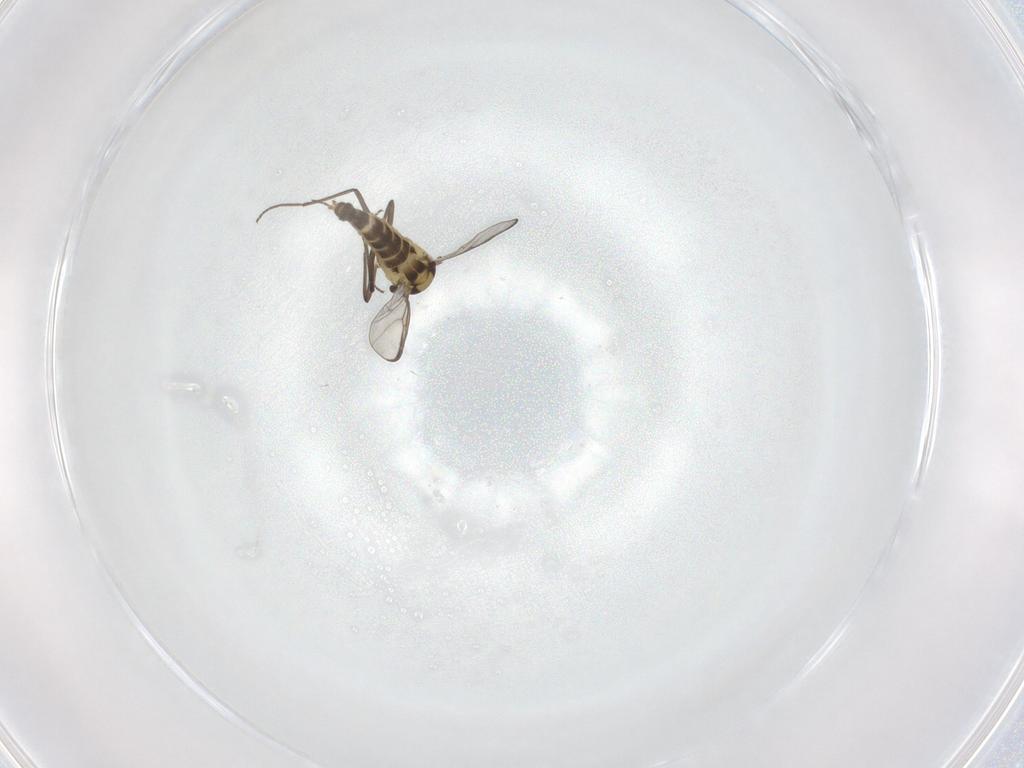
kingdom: Animalia
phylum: Arthropoda
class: Insecta
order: Diptera
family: Chironomidae
